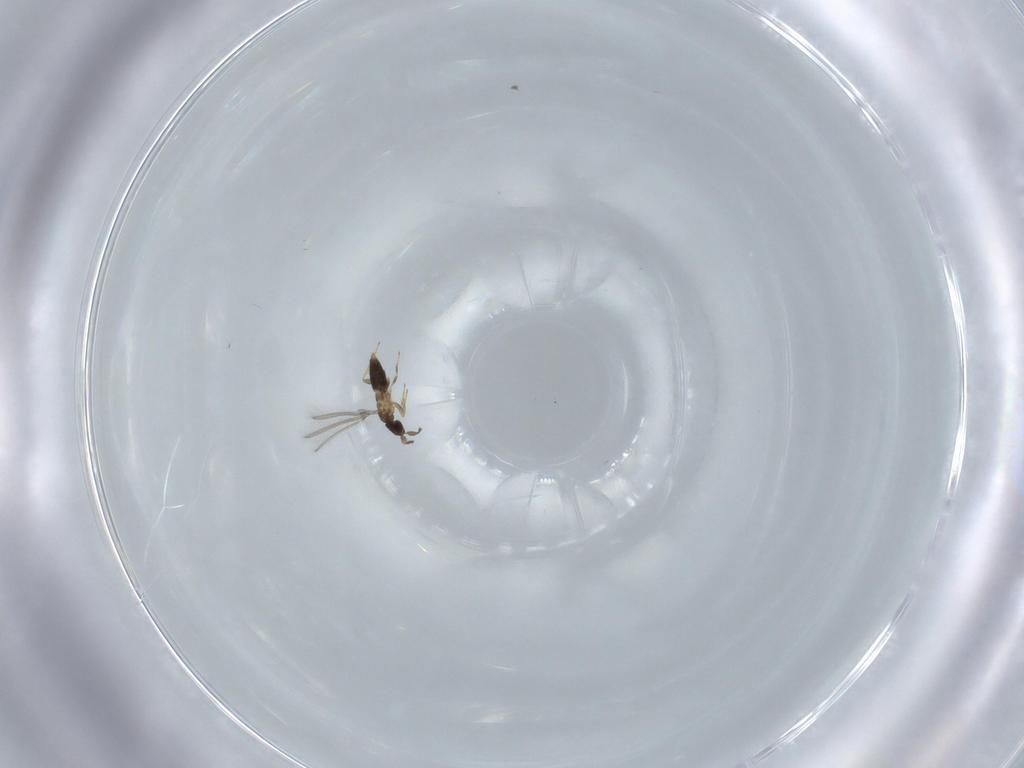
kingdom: Animalia
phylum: Arthropoda
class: Insecta
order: Hymenoptera
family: Mymaridae
